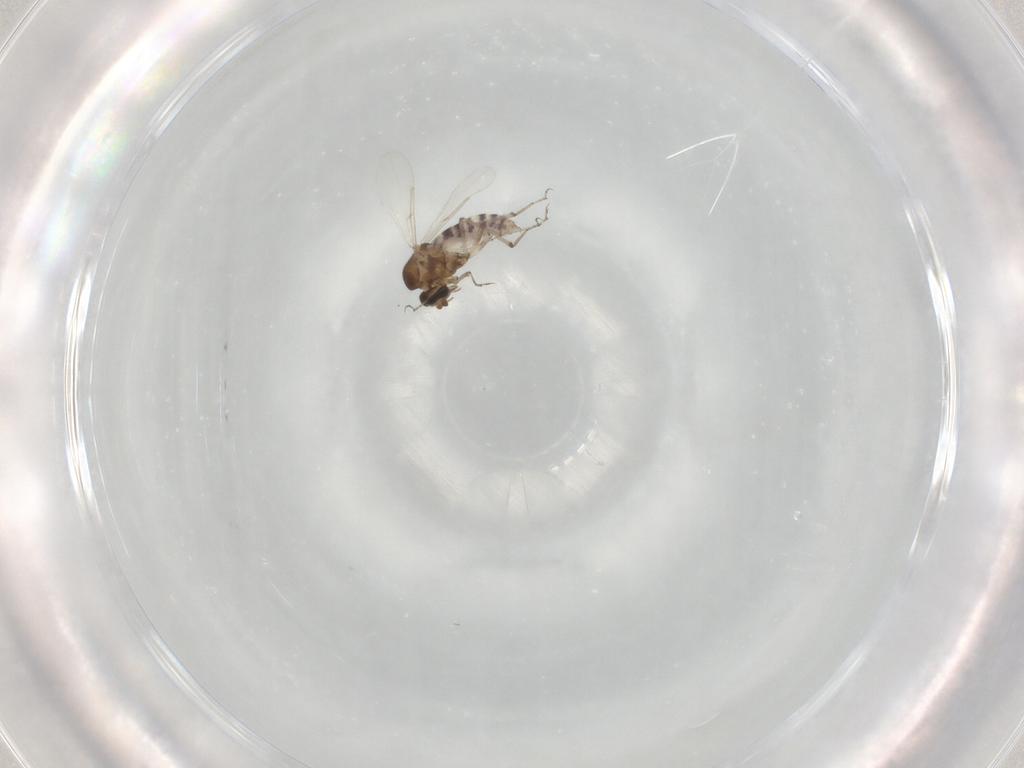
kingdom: Animalia
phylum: Arthropoda
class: Insecta
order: Diptera
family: Ceratopogonidae
